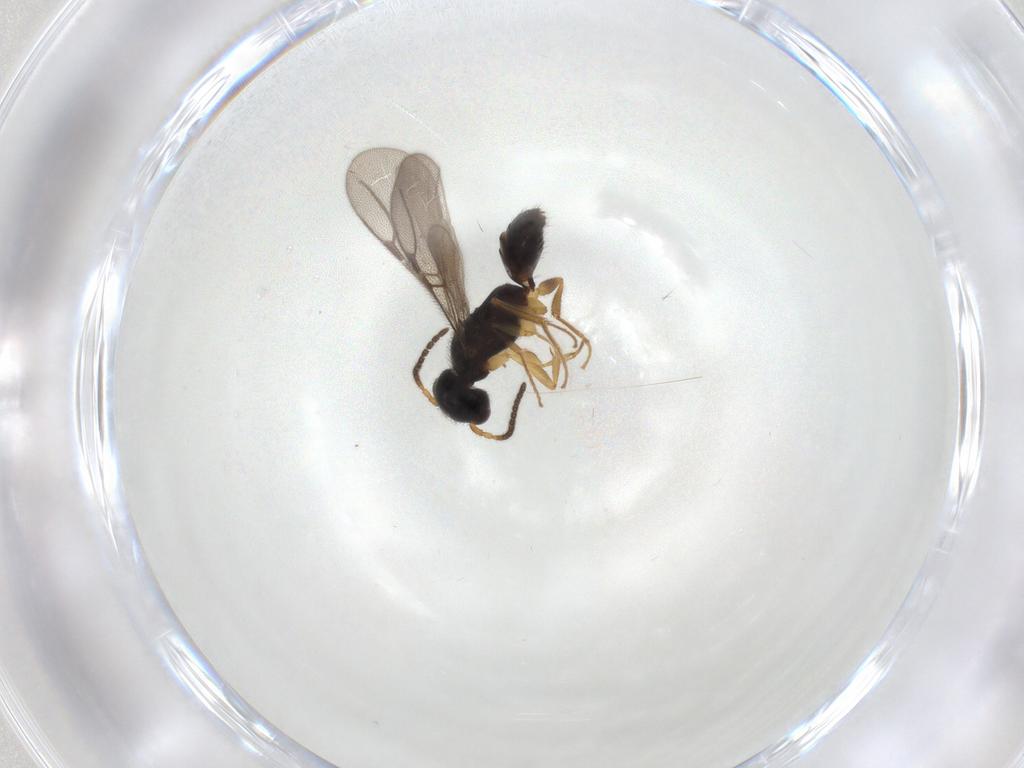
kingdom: Animalia
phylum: Arthropoda
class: Insecta
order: Hymenoptera
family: Bethylidae
